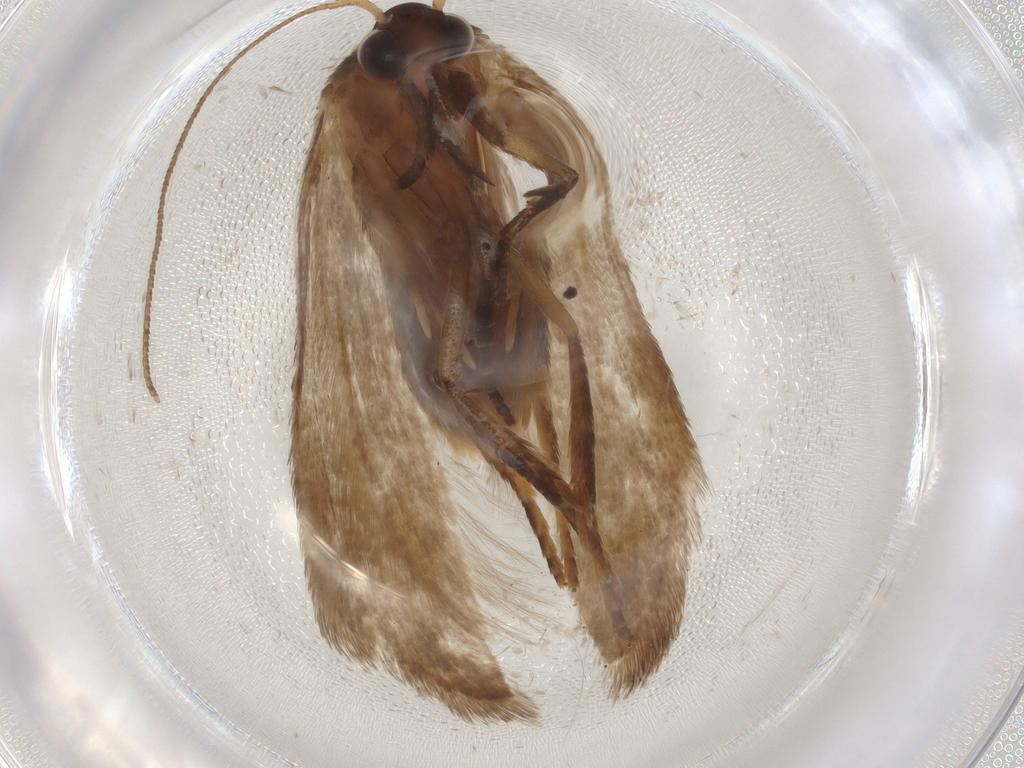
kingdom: Animalia
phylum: Arthropoda
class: Insecta
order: Lepidoptera
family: Coleophoridae
